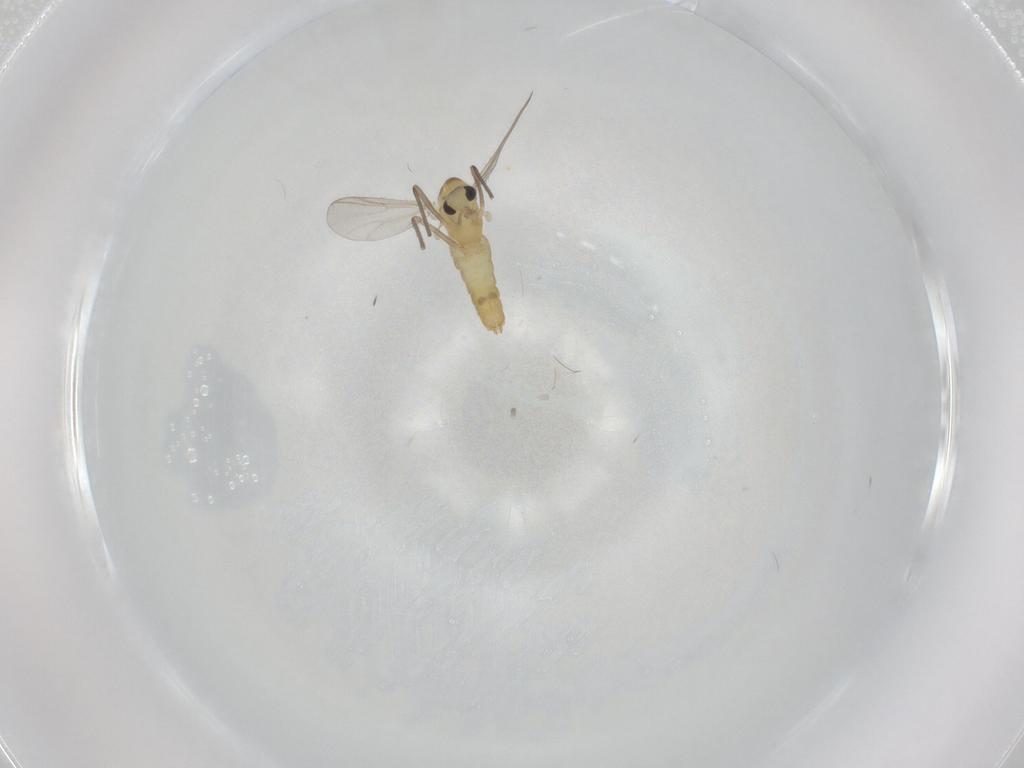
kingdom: Animalia
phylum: Arthropoda
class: Insecta
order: Diptera
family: Chironomidae
